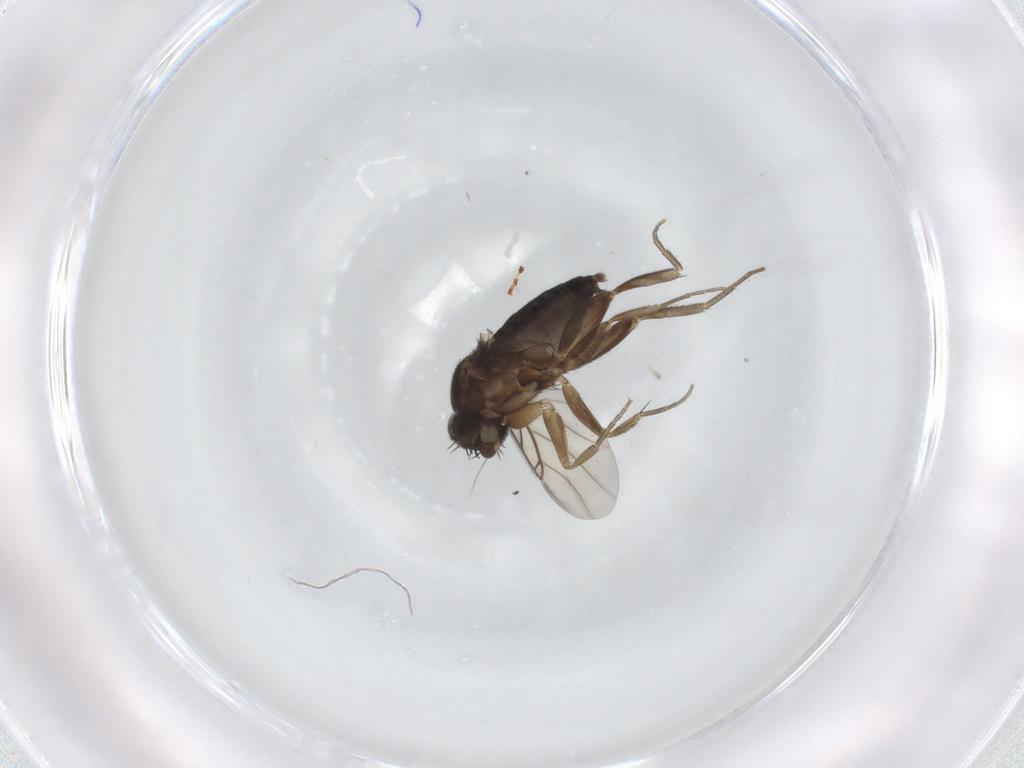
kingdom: Animalia
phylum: Arthropoda
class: Insecta
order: Diptera
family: Phoridae
